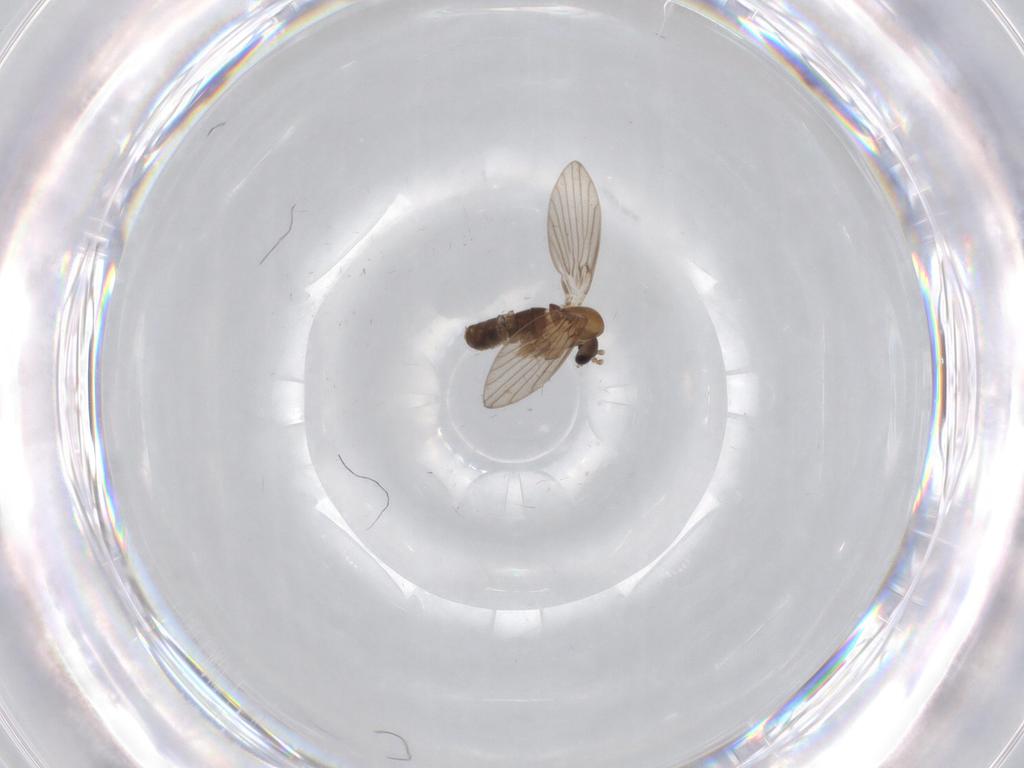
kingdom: Animalia
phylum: Arthropoda
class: Insecta
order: Diptera
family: Psychodidae
